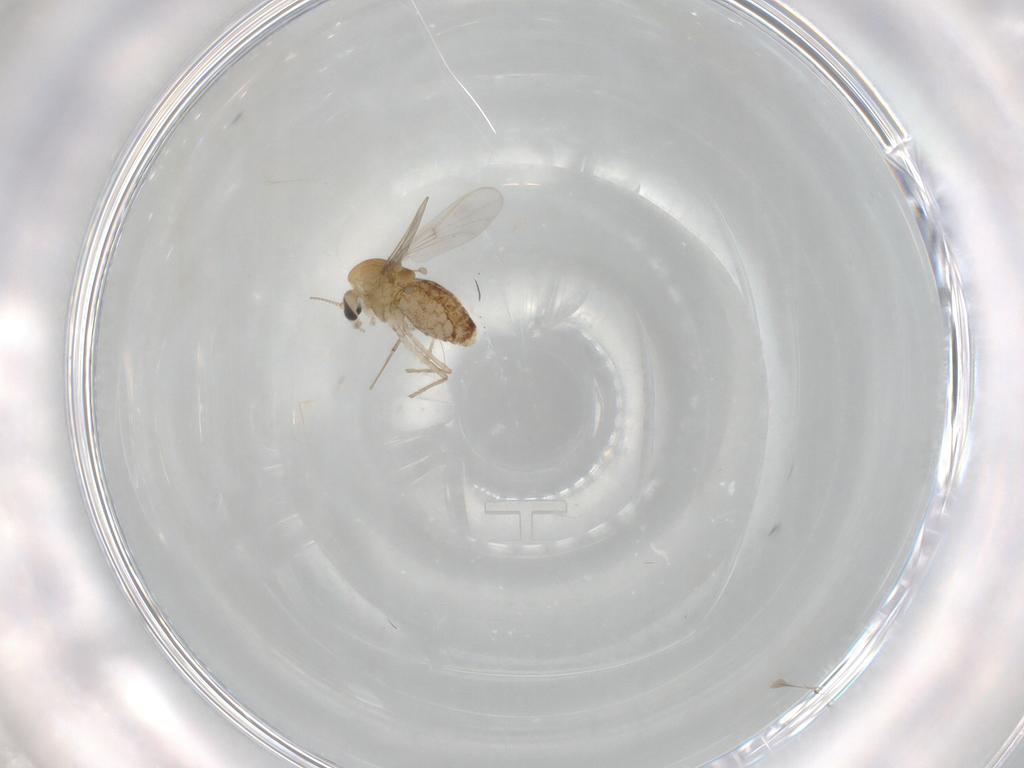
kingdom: Animalia
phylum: Arthropoda
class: Insecta
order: Diptera
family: Chironomidae
